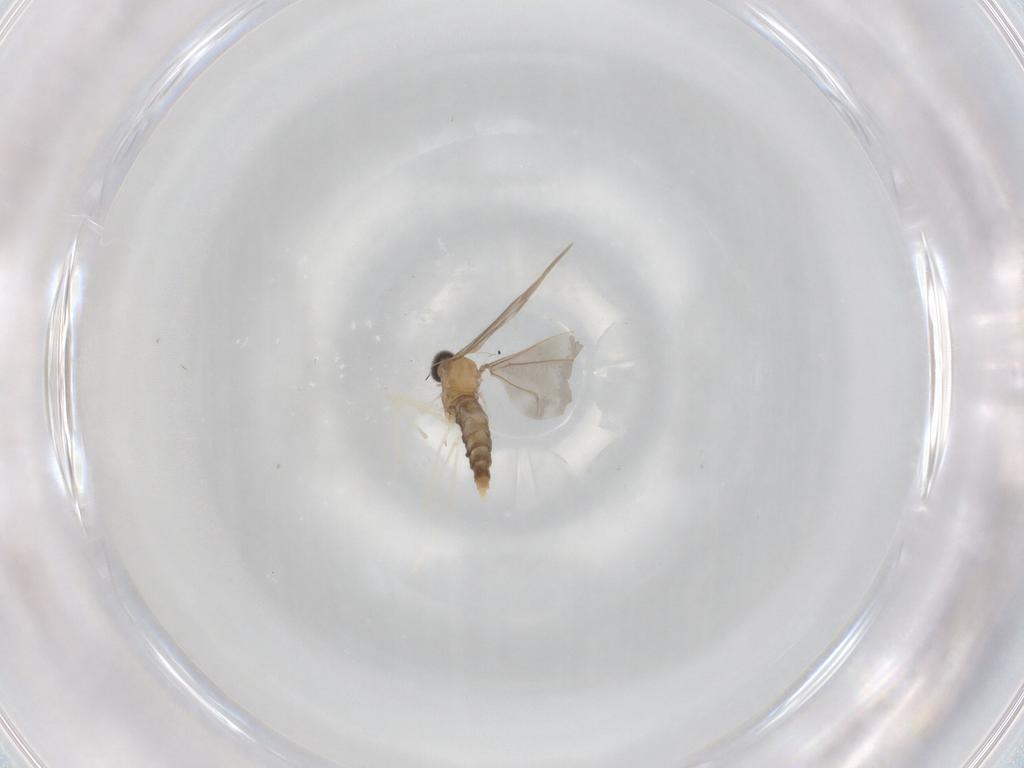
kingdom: Animalia
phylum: Arthropoda
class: Insecta
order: Diptera
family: Cecidomyiidae
